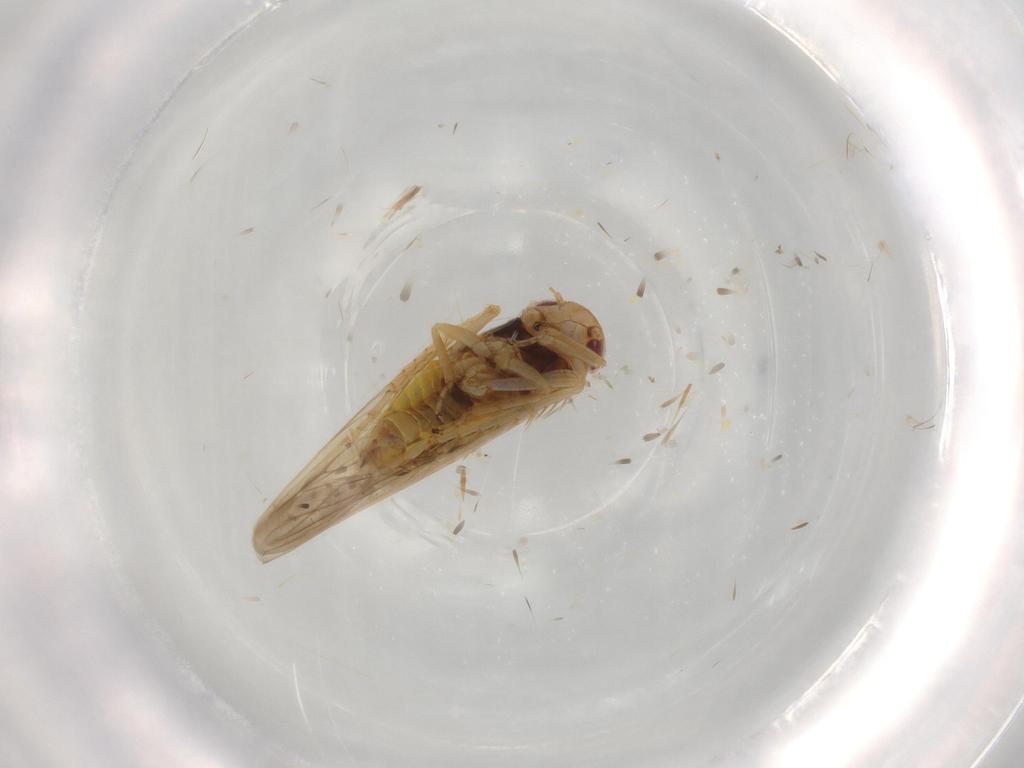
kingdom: Animalia
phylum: Arthropoda
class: Insecta
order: Hemiptera
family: Cicadellidae
